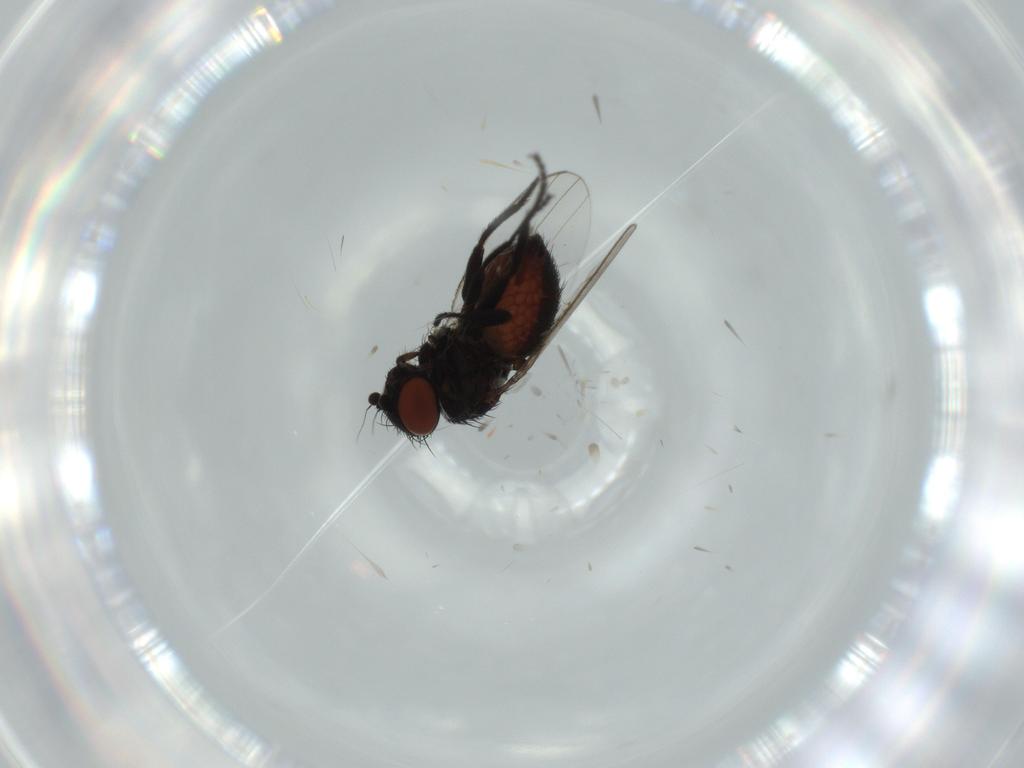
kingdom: Animalia
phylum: Arthropoda
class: Insecta
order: Diptera
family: Milichiidae
